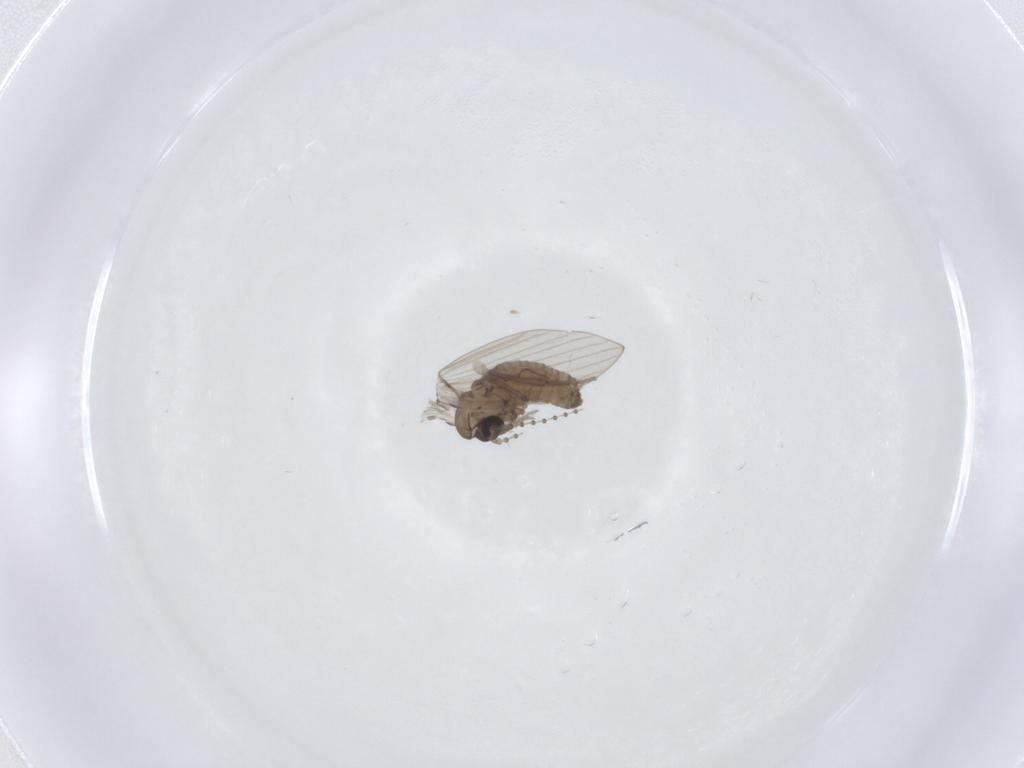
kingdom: Animalia
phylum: Arthropoda
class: Insecta
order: Diptera
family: Psychodidae
